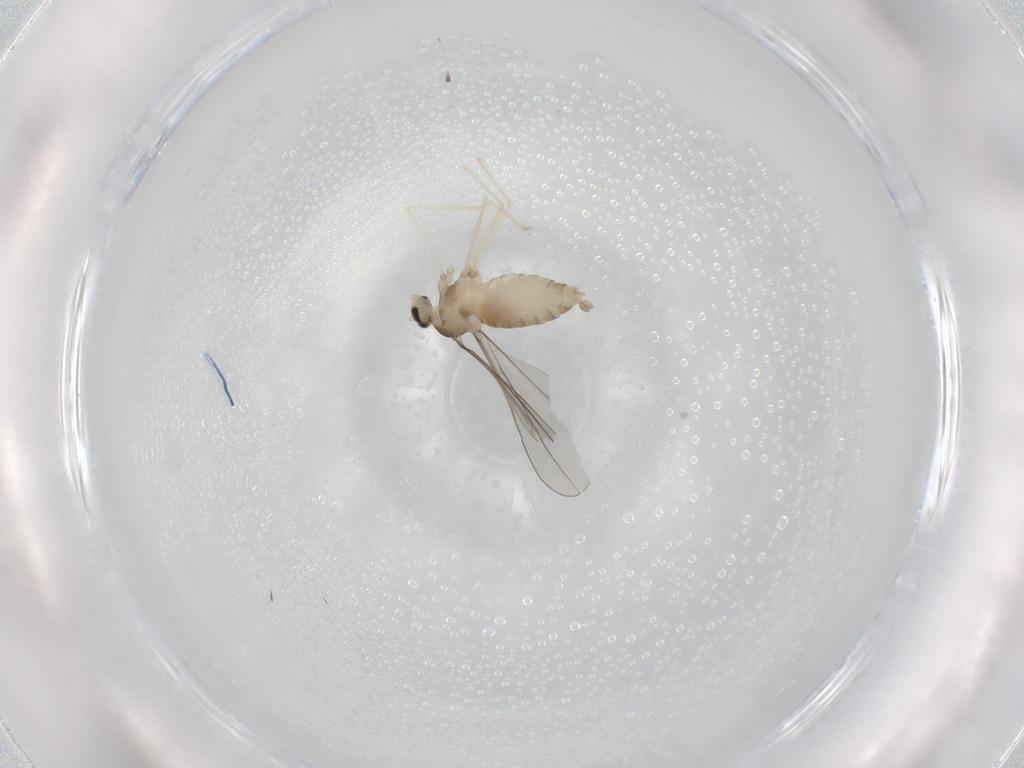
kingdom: Animalia
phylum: Arthropoda
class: Insecta
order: Diptera
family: Cecidomyiidae
